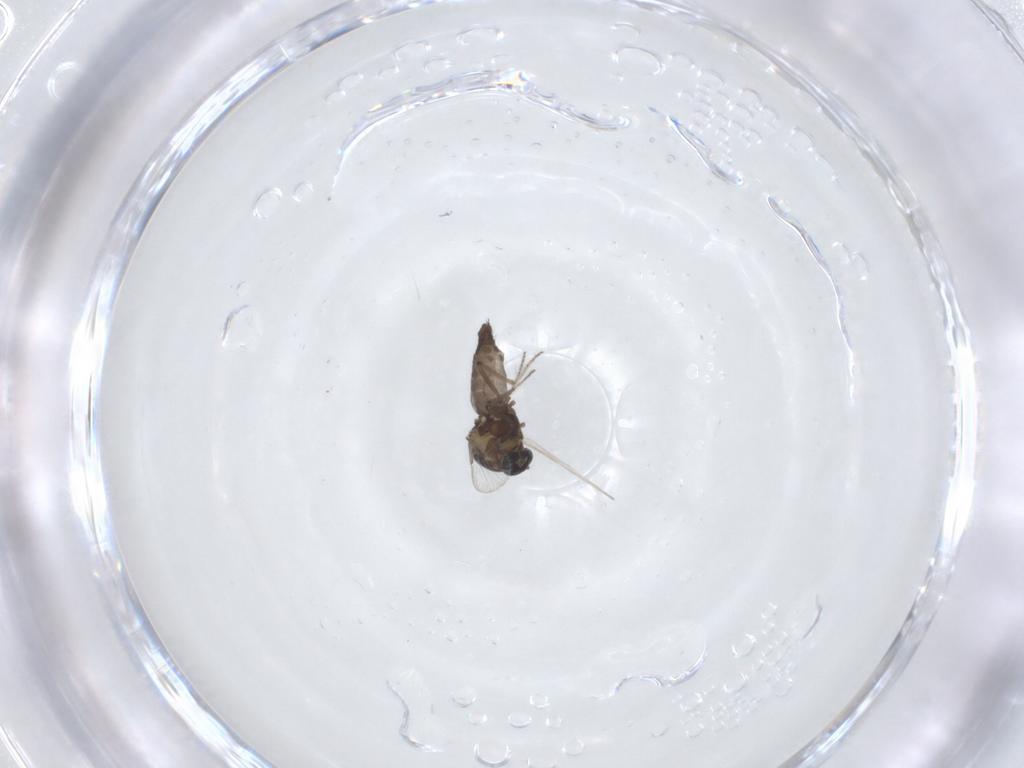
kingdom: Animalia
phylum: Arthropoda
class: Insecta
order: Diptera
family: Ceratopogonidae
